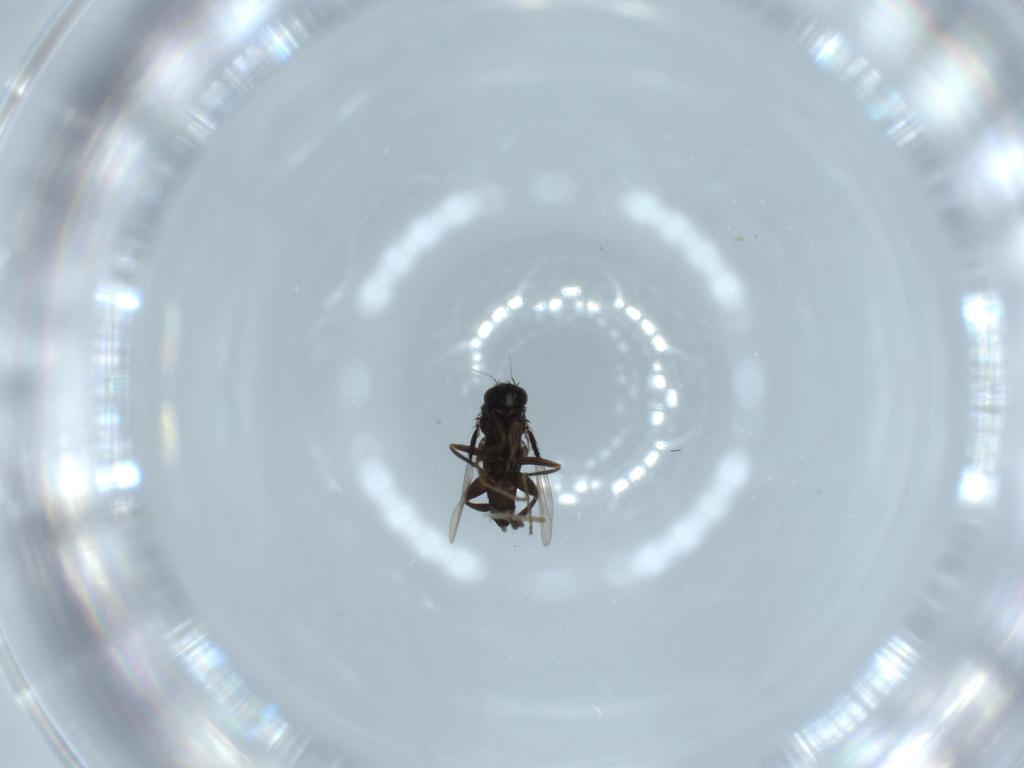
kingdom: Animalia
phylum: Arthropoda
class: Insecta
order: Diptera
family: Phoridae
